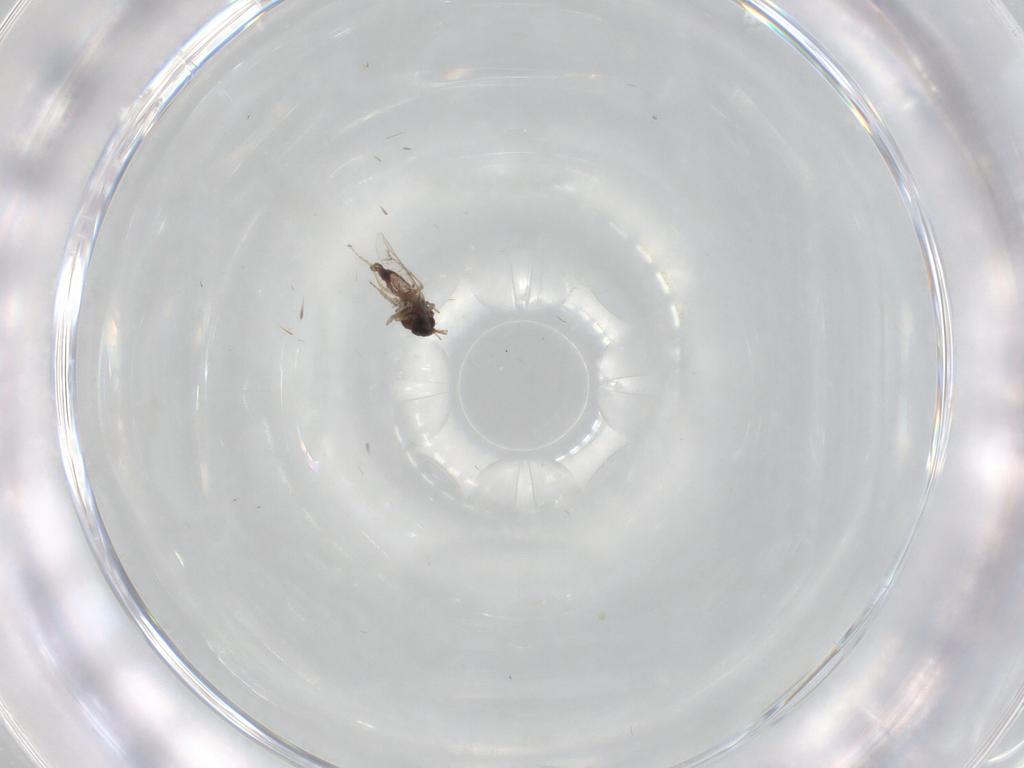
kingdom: Animalia
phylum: Arthropoda
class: Insecta
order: Diptera
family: Ceratopogonidae
